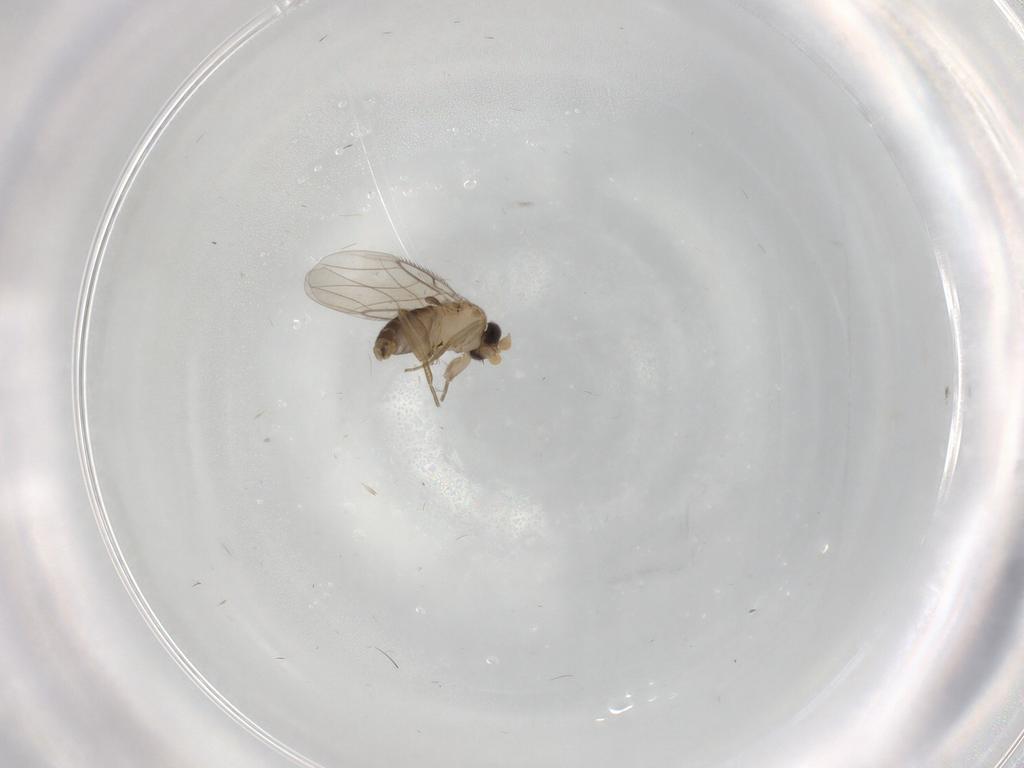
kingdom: Animalia
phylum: Arthropoda
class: Insecta
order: Diptera
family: Phoridae
